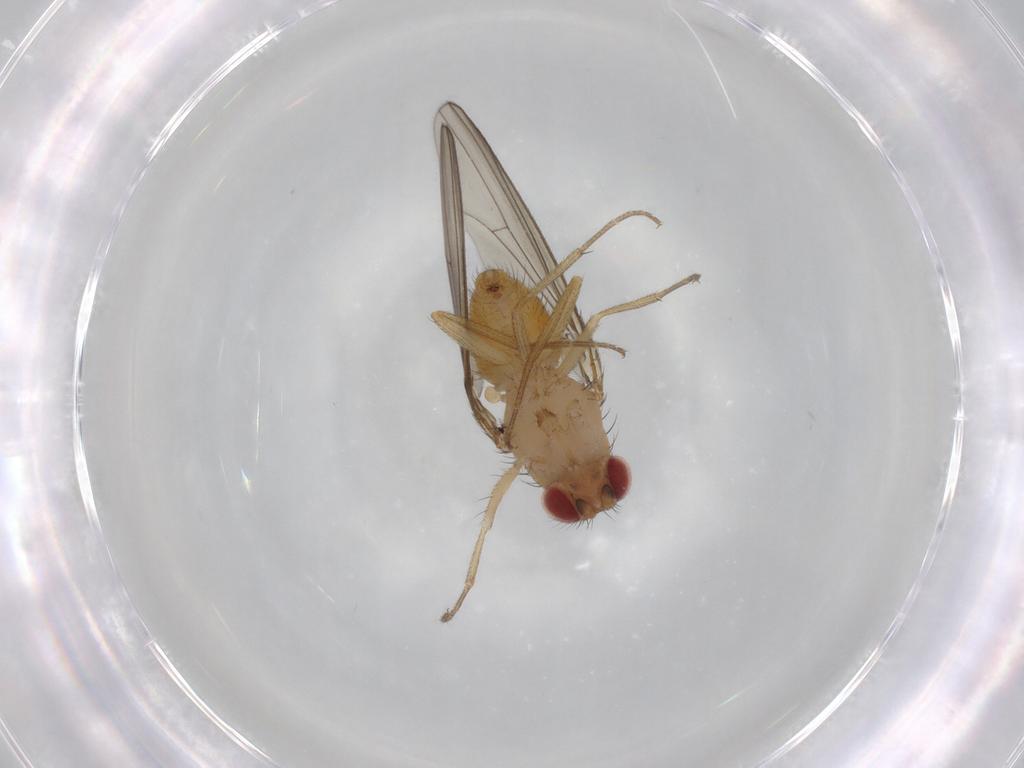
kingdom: Animalia
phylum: Arthropoda
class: Insecta
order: Diptera
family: Drosophilidae
